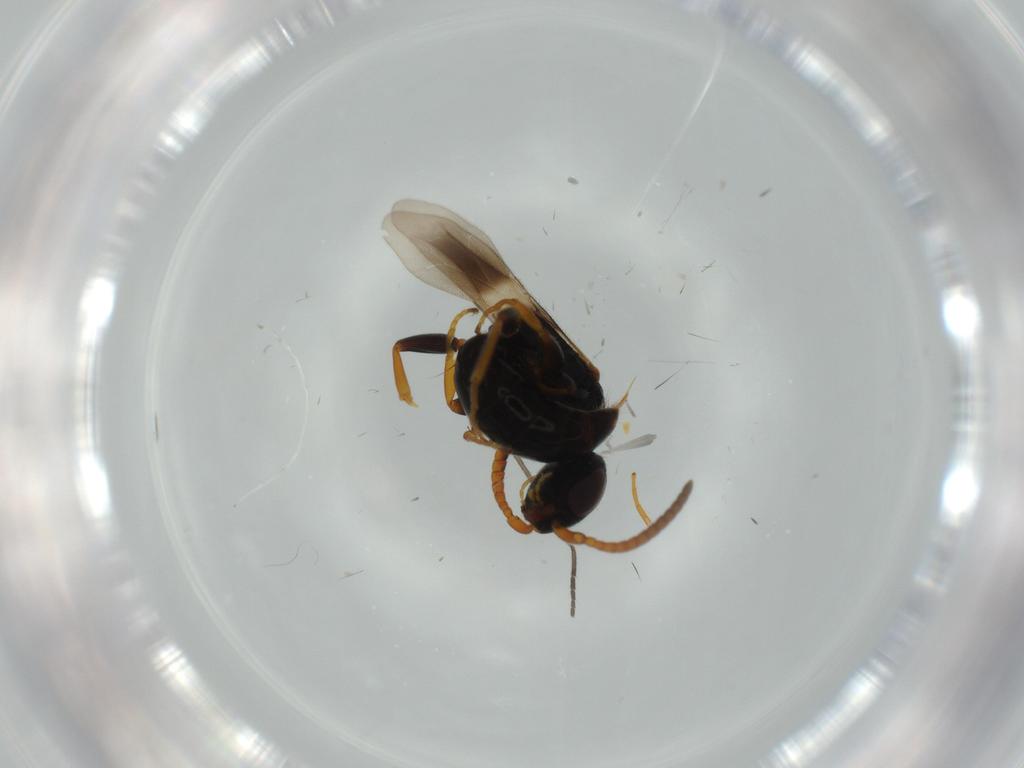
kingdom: Animalia
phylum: Arthropoda
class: Insecta
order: Hymenoptera
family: Bethylidae
